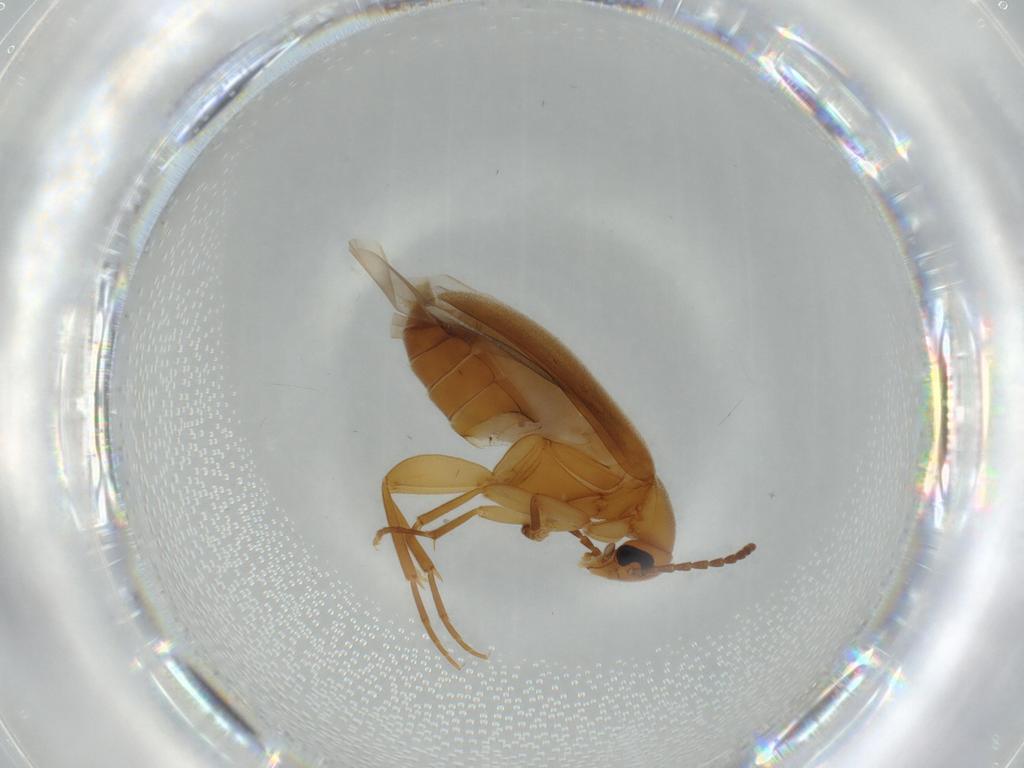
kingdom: Animalia
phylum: Arthropoda
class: Insecta
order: Coleoptera
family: Scraptiidae
